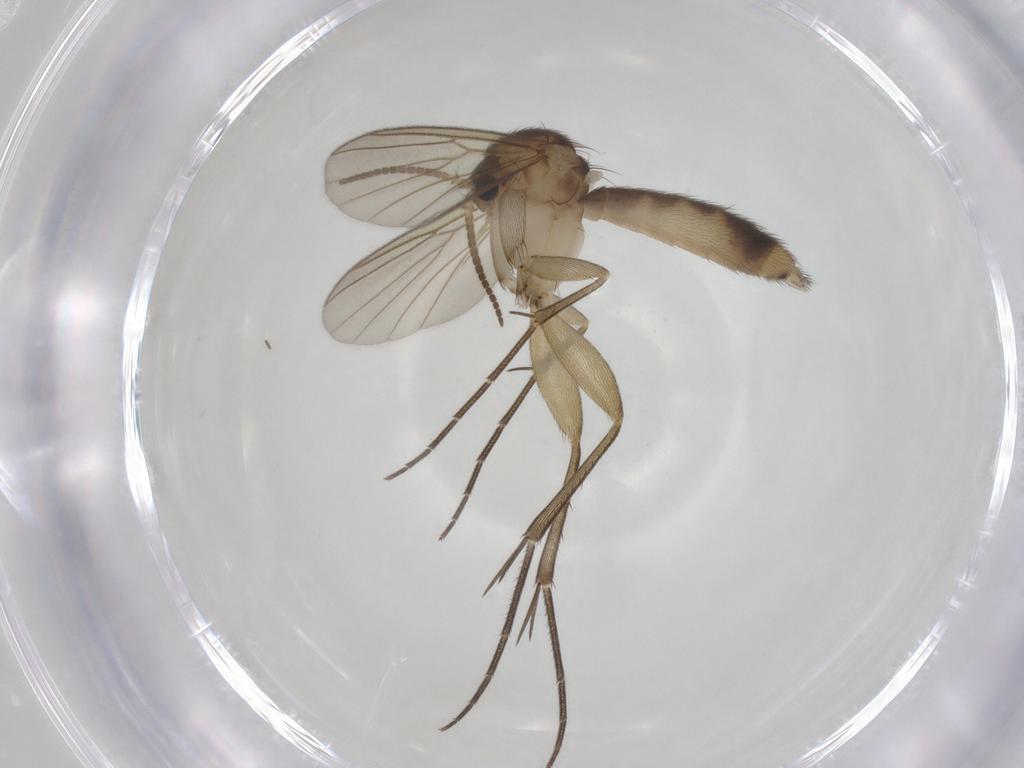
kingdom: Animalia
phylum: Arthropoda
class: Insecta
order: Diptera
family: Mycetophilidae
